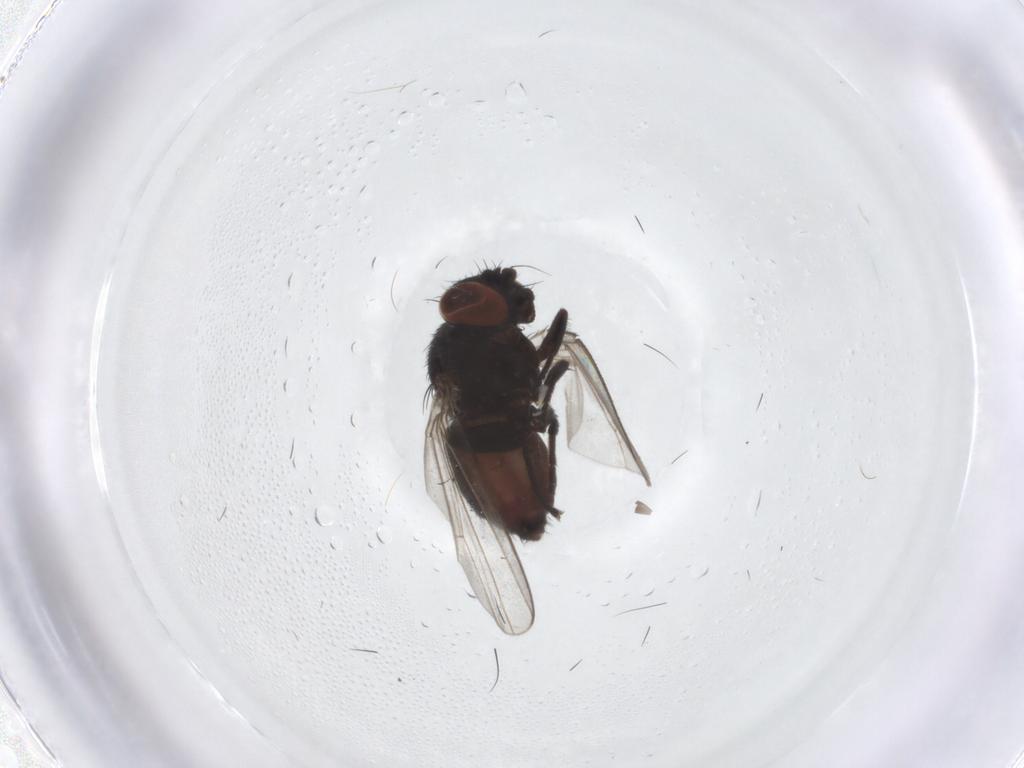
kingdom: Animalia
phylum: Arthropoda
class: Insecta
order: Diptera
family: Milichiidae
